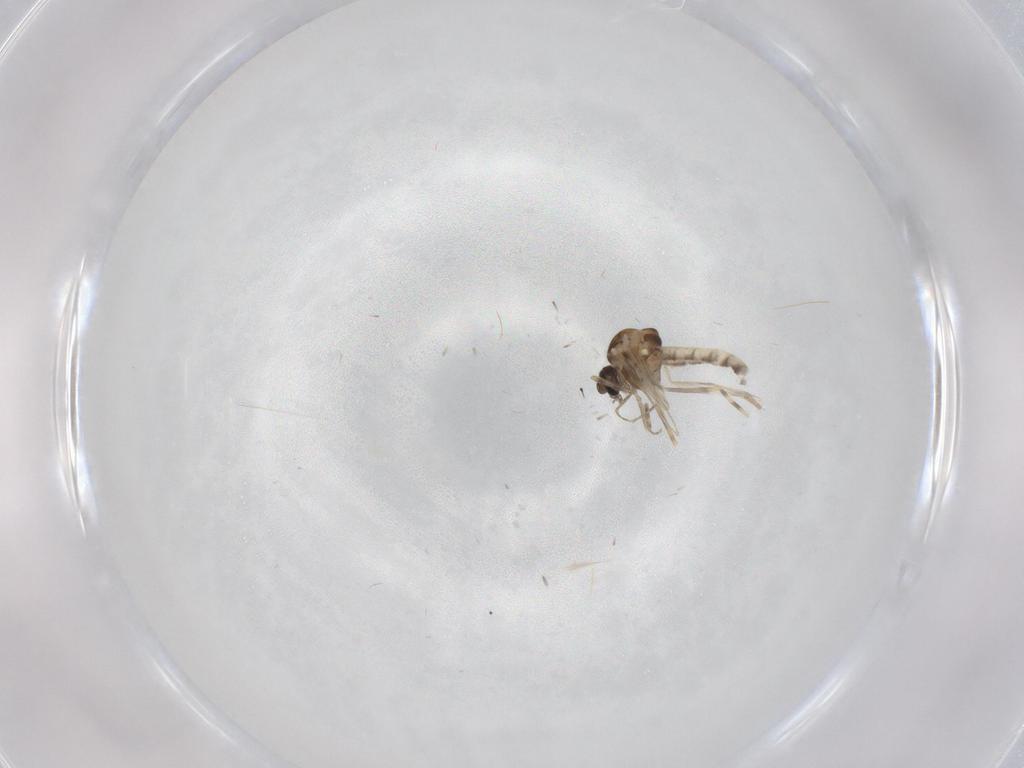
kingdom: Animalia
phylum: Arthropoda
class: Insecta
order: Diptera
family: Ceratopogonidae
